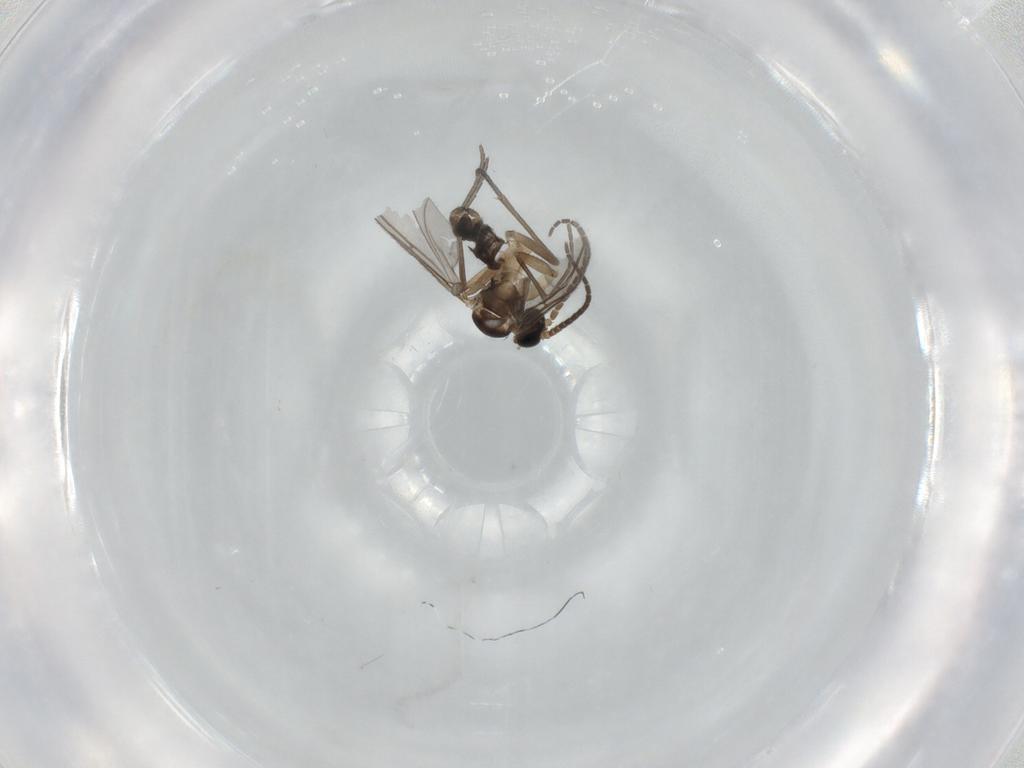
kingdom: Animalia
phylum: Arthropoda
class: Insecta
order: Diptera
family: Sciaridae
